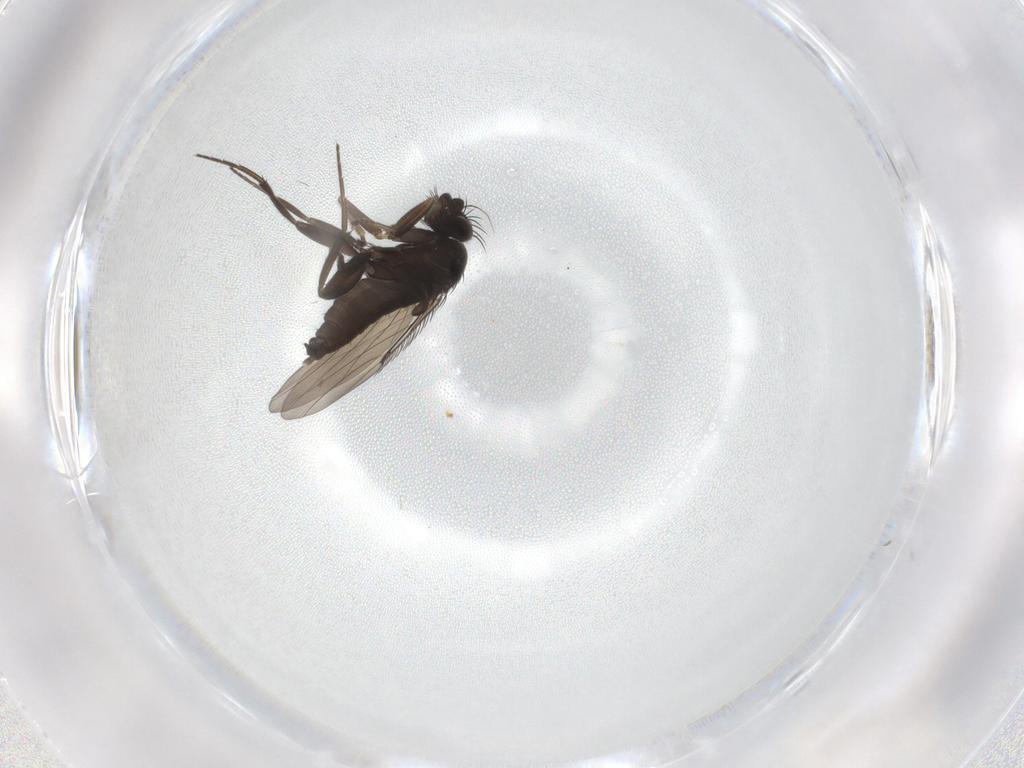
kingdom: Animalia
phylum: Arthropoda
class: Insecta
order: Diptera
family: Phoridae
